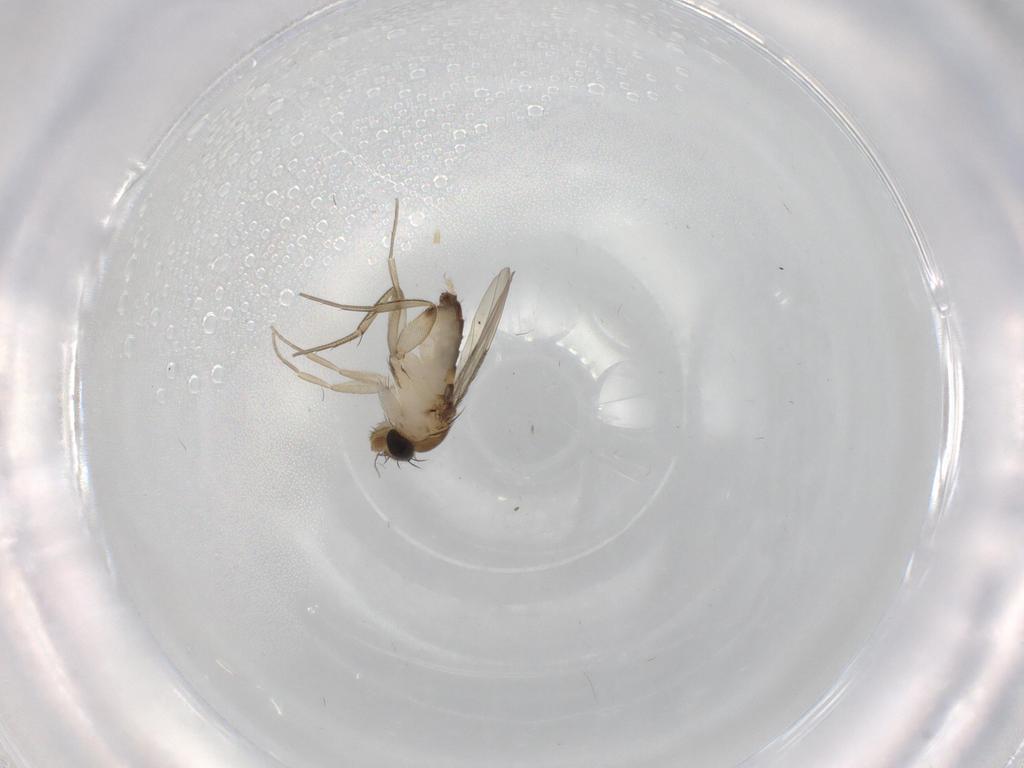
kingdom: Animalia
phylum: Arthropoda
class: Insecta
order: Diptera
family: Phoridae
